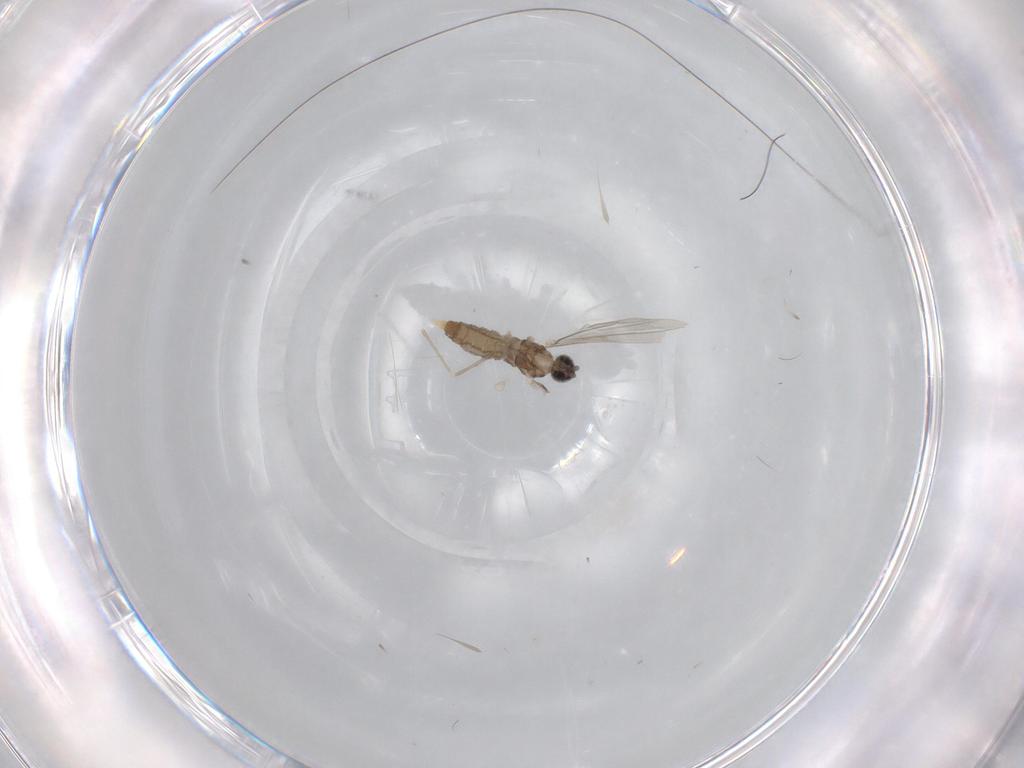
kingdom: Animalia
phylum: Arthropoda
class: Insecta
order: Diptera
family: Cecidomyiidae
